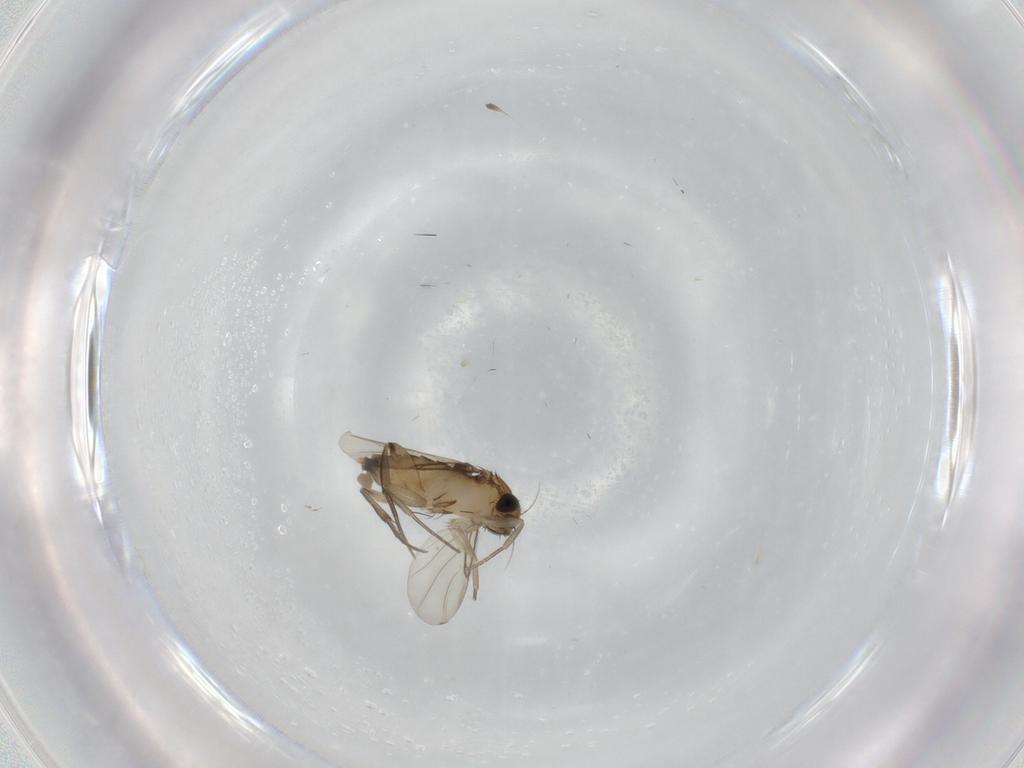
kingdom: Animalia
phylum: Arthropoda
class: Insecta
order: Diptera
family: Phoridae
